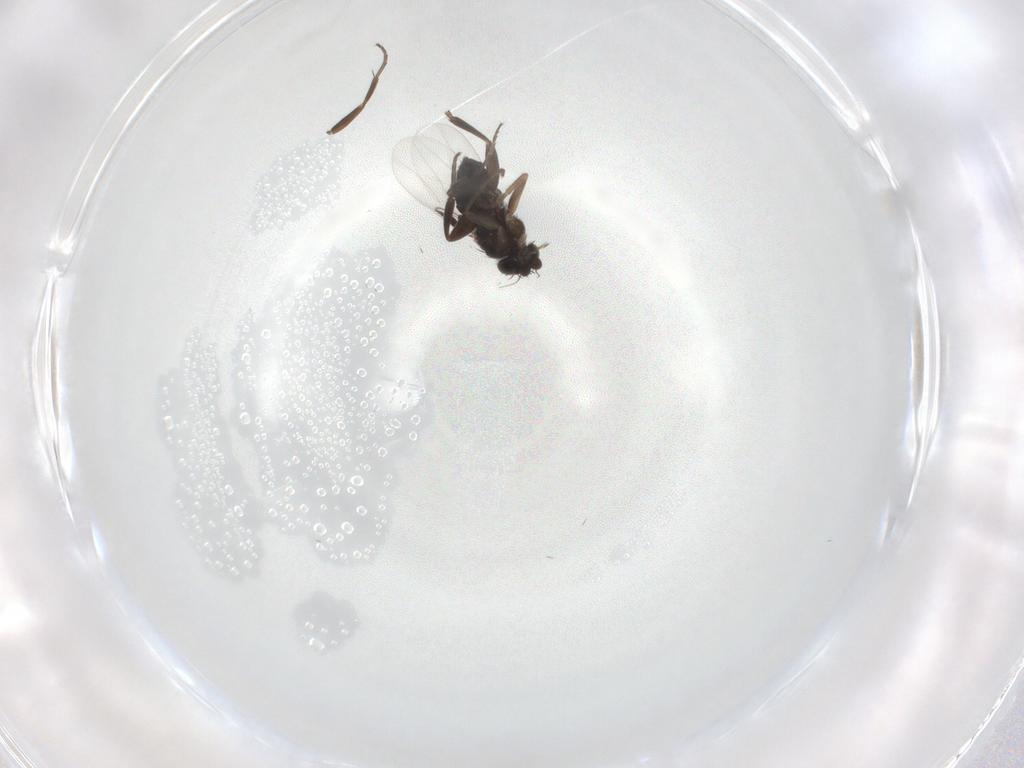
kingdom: Animalia
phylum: Arthropoda
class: Insecta
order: Diptera
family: Phoridae
